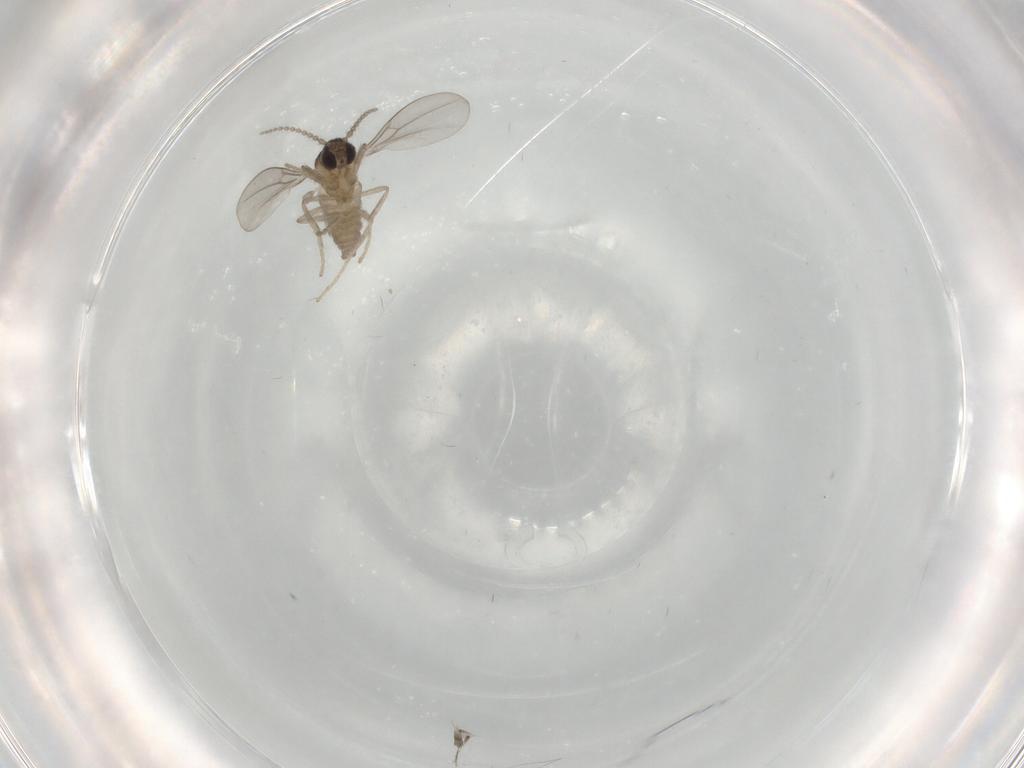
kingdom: Animalia
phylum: Arthropoda
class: Insecta
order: Diptera
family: Cecidomyiidae
